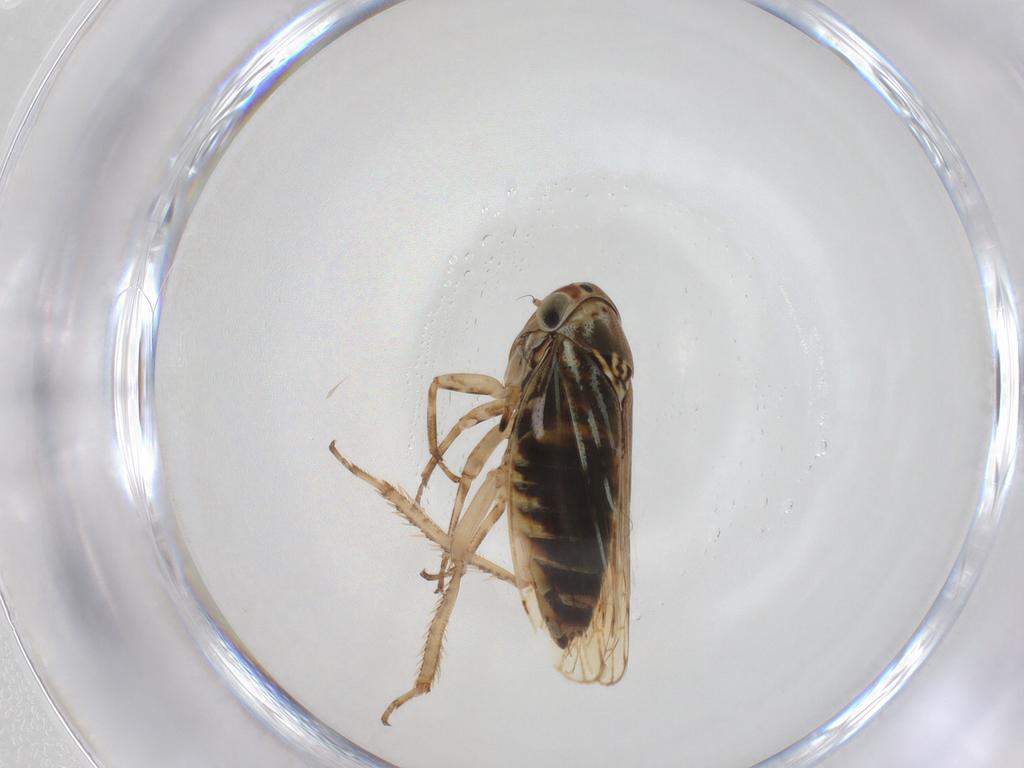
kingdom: Animalia
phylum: Arthropoda
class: Insecta
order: Hemiptera
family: Cicadellidae
